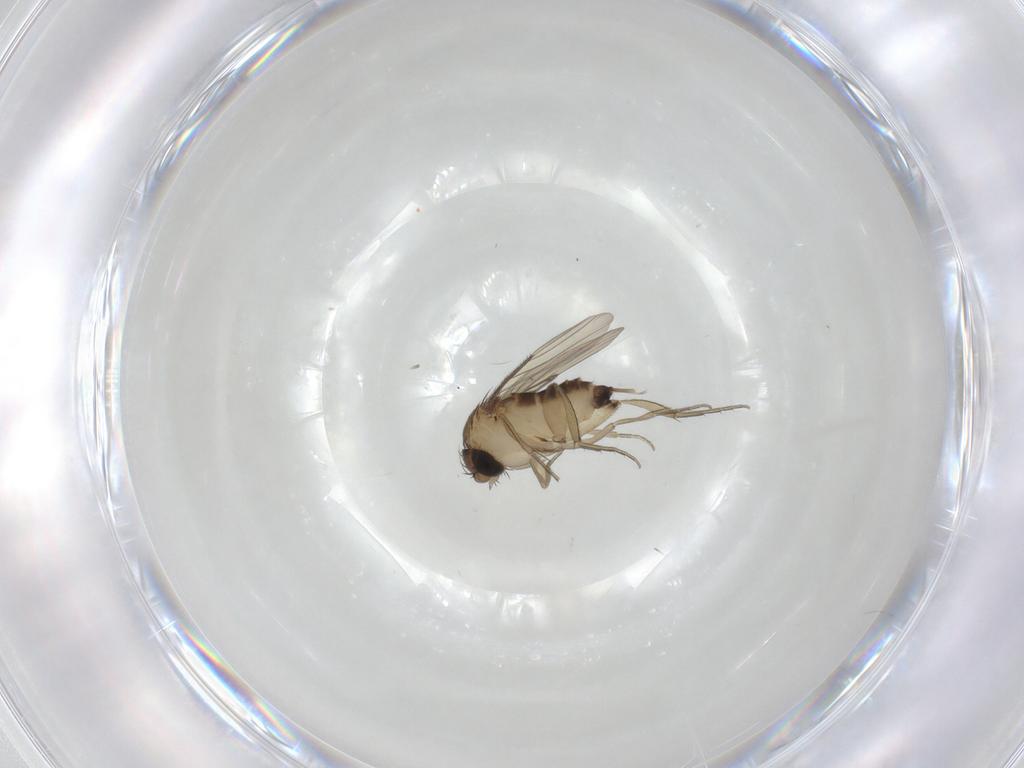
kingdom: Animalia
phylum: Arthropoda
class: Insecta
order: Diptera
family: Phoridae
